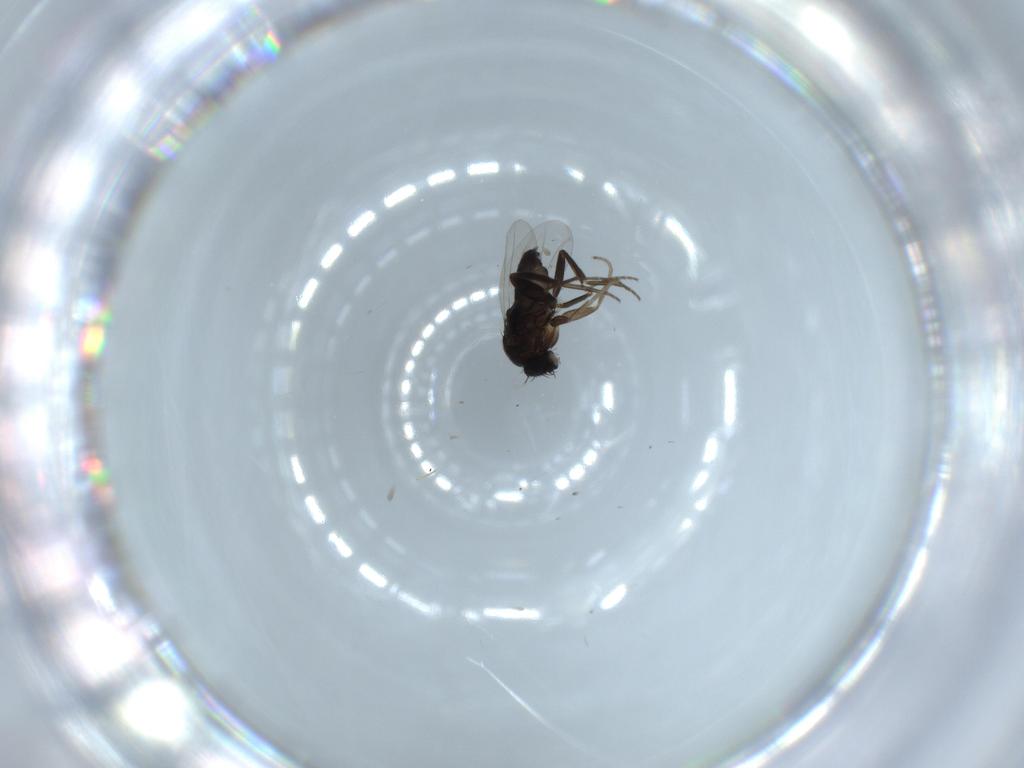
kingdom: Animalia
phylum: Arthropoda
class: Insecta
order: Diptera
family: Phoridae
